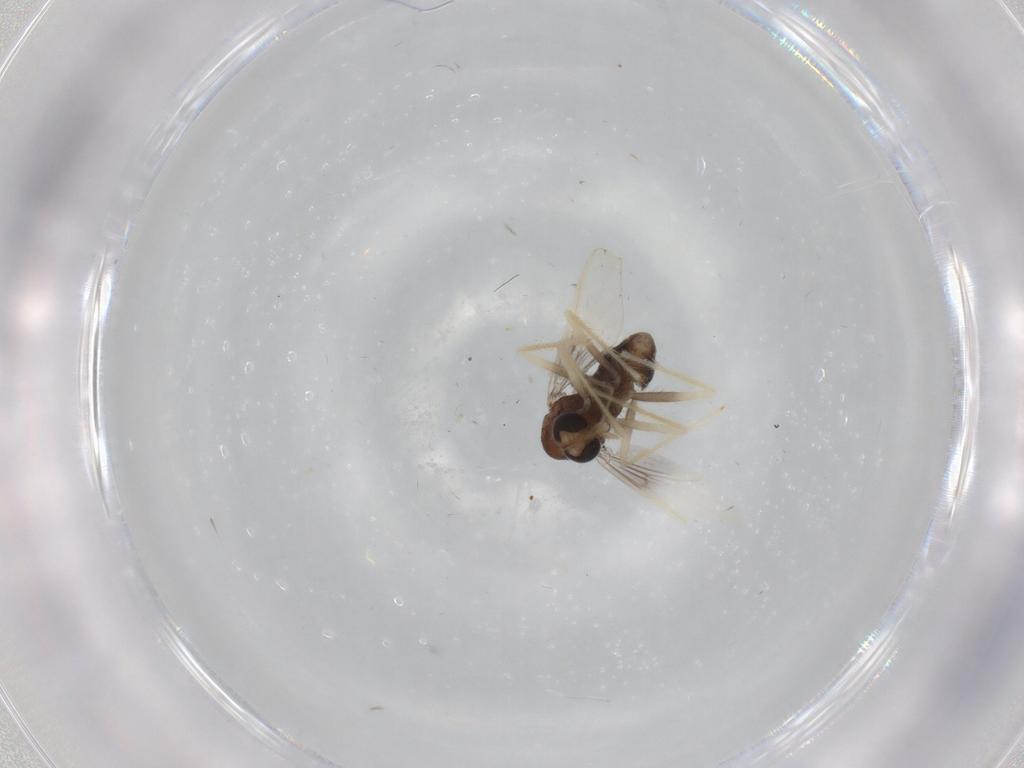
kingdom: Animalia
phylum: Arthropoda
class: Insecta
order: Diptera
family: Chironomidae
